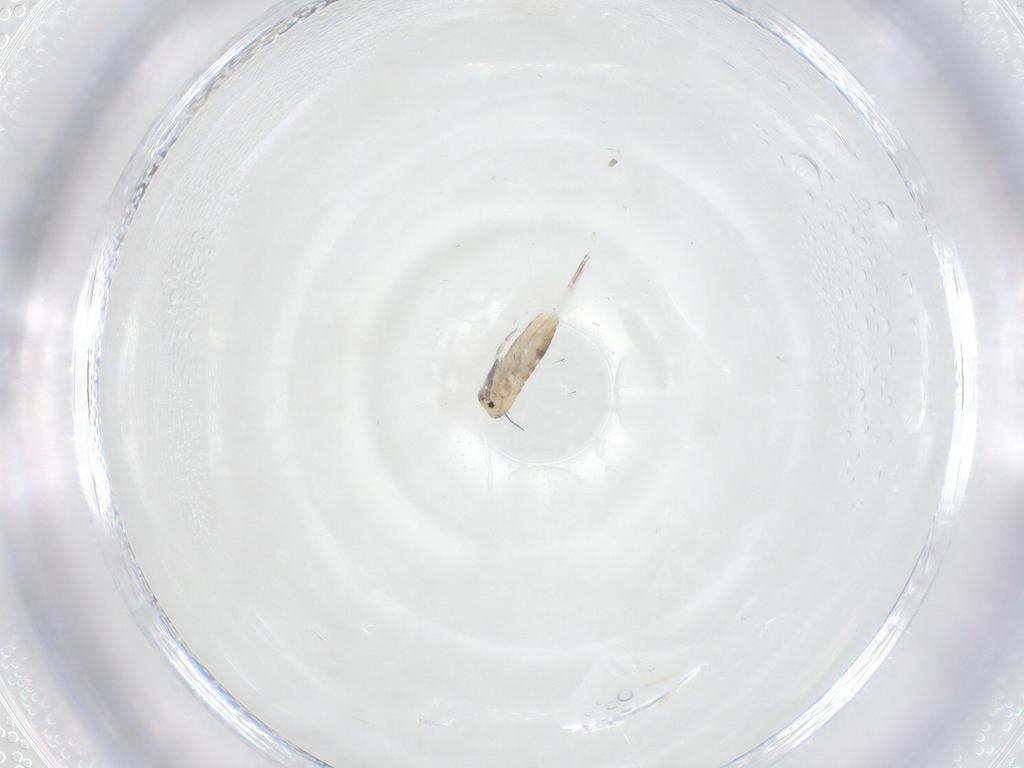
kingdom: Animalia
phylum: Arthropoda
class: Collembola
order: Entomobryomorpha
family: Entomobryidae
